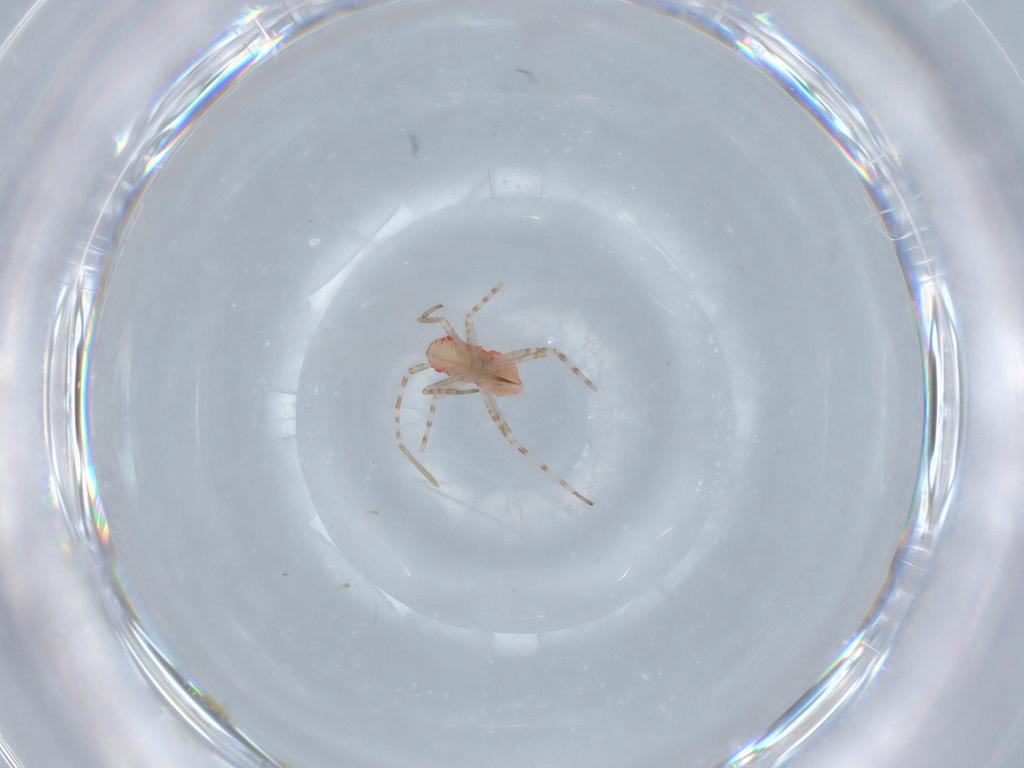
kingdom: Animalia
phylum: Arthropoda
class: Insecta
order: Hemiptera
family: Miridae
